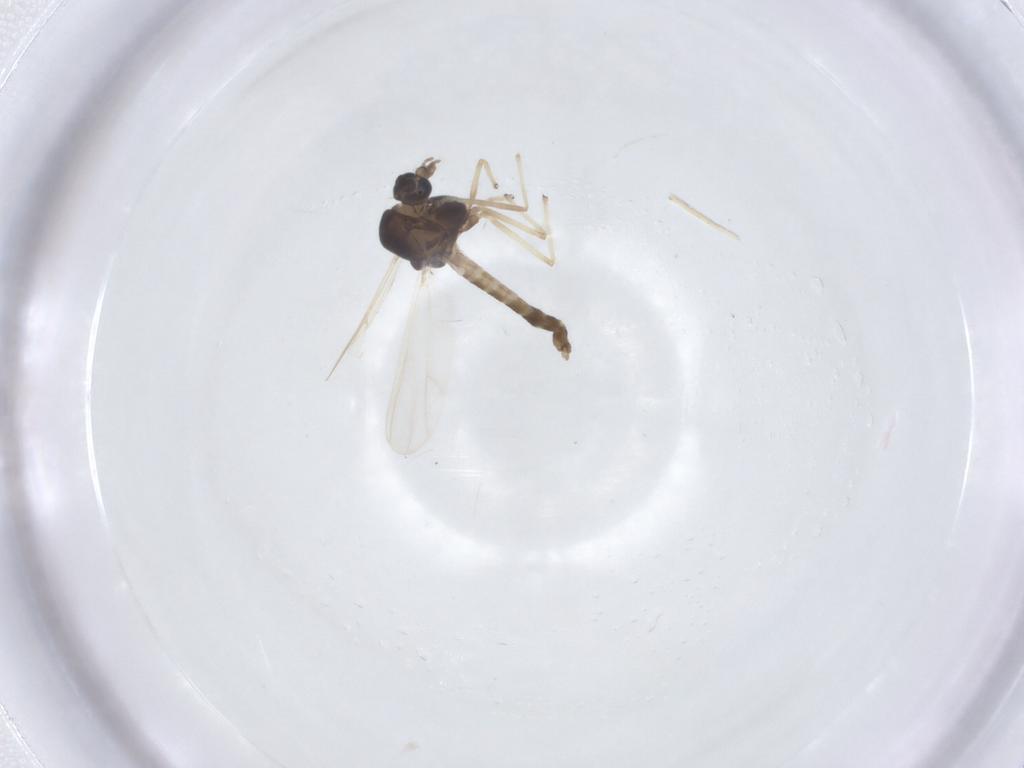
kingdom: Animalia
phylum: Arthropoda
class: Insecta
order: Diptera
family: Chironomidae
